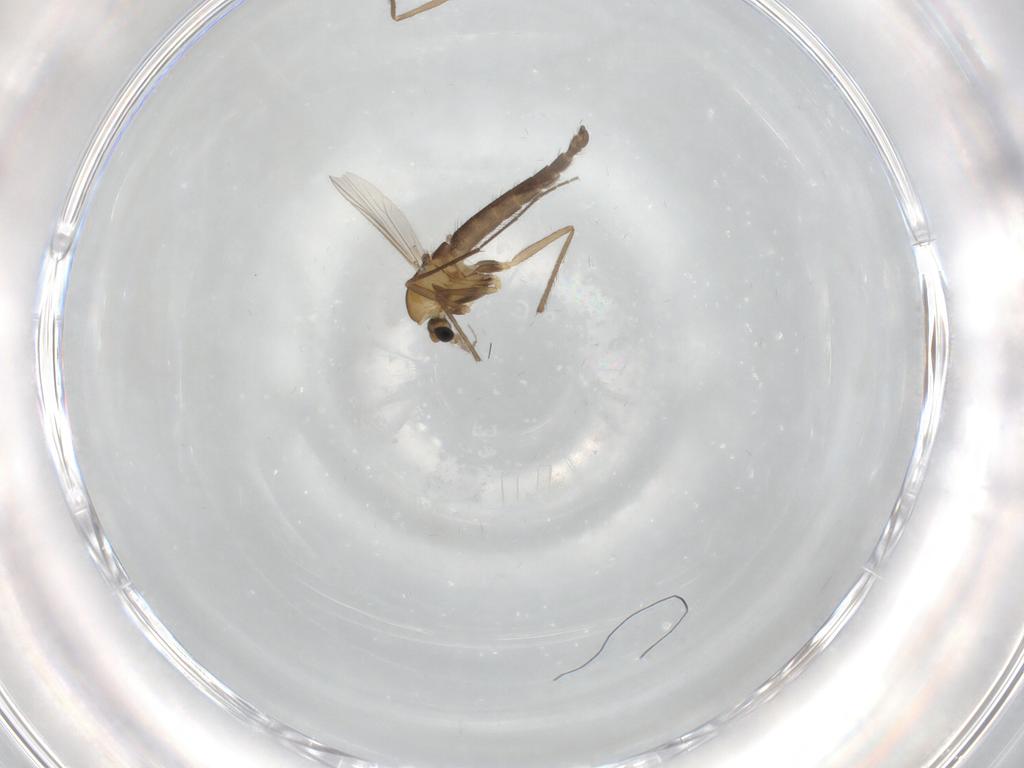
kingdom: Animalia
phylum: Arthropoda
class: Insecta
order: Diptera
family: Chironomidae
